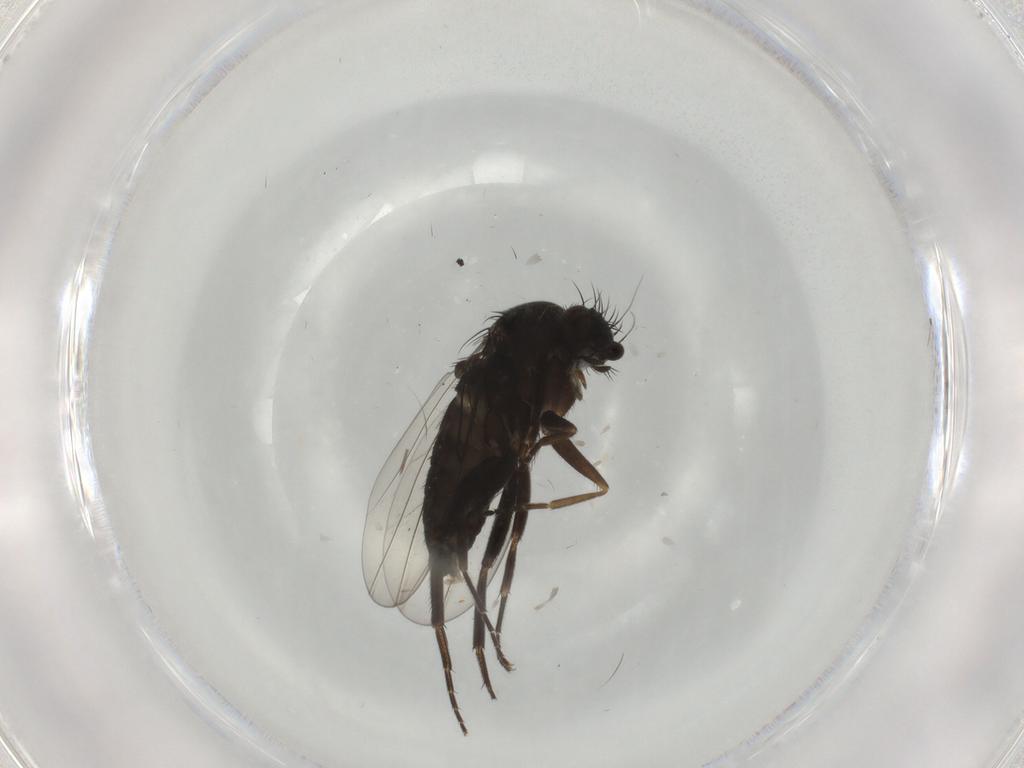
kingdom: Animalia
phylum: Arthropoda
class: Insecta
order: Diptera
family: Phoridae
